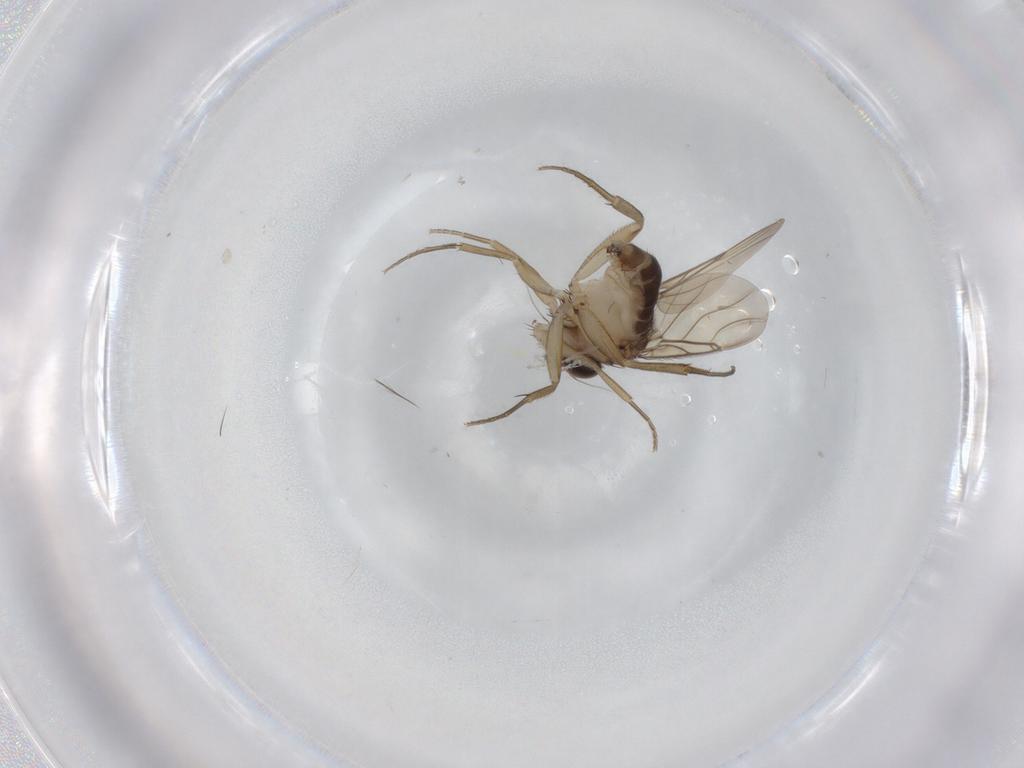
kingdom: Animalia
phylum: Arthropoda
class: Insecta
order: Diptera
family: Phoridae
